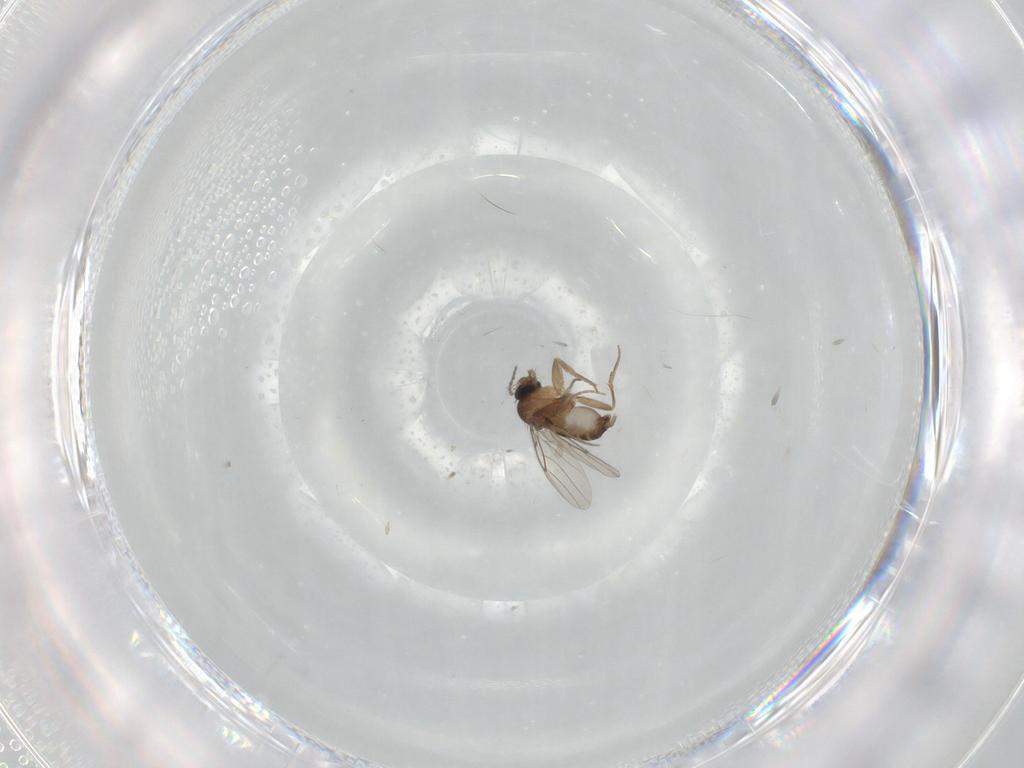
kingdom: Animalia
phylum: Arthropoda
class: Insecta
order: Diptera
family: Phoridae
